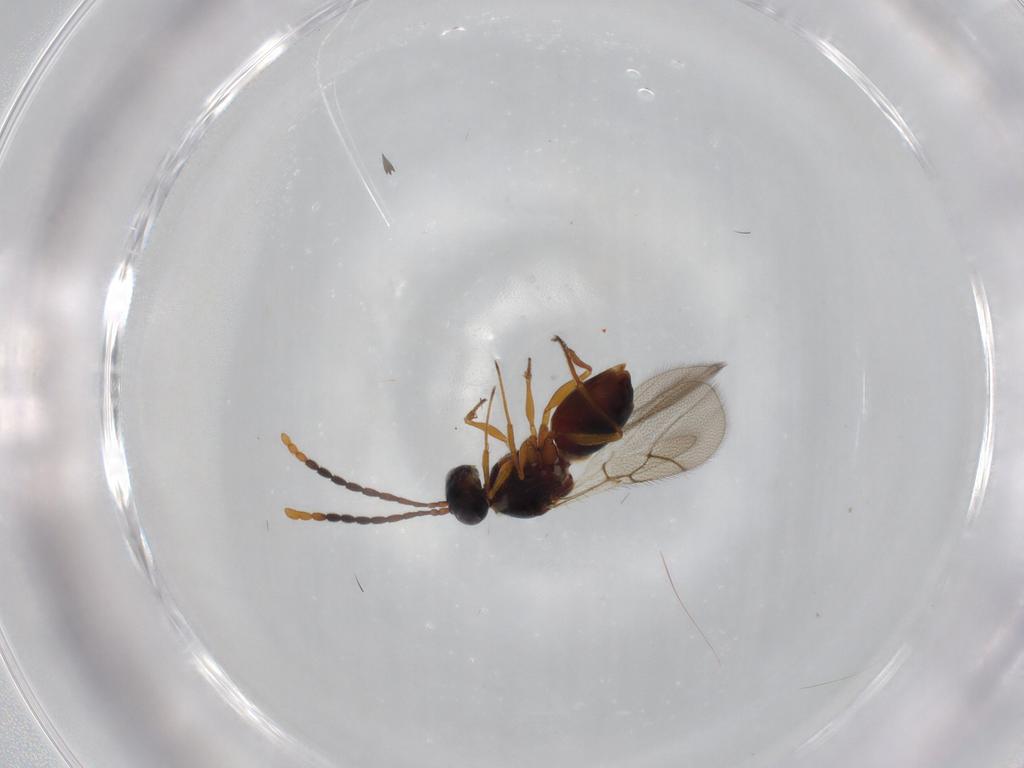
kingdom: Animalia
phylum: Arthropoda
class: Insecta
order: Hymenoptera
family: Figitidae
